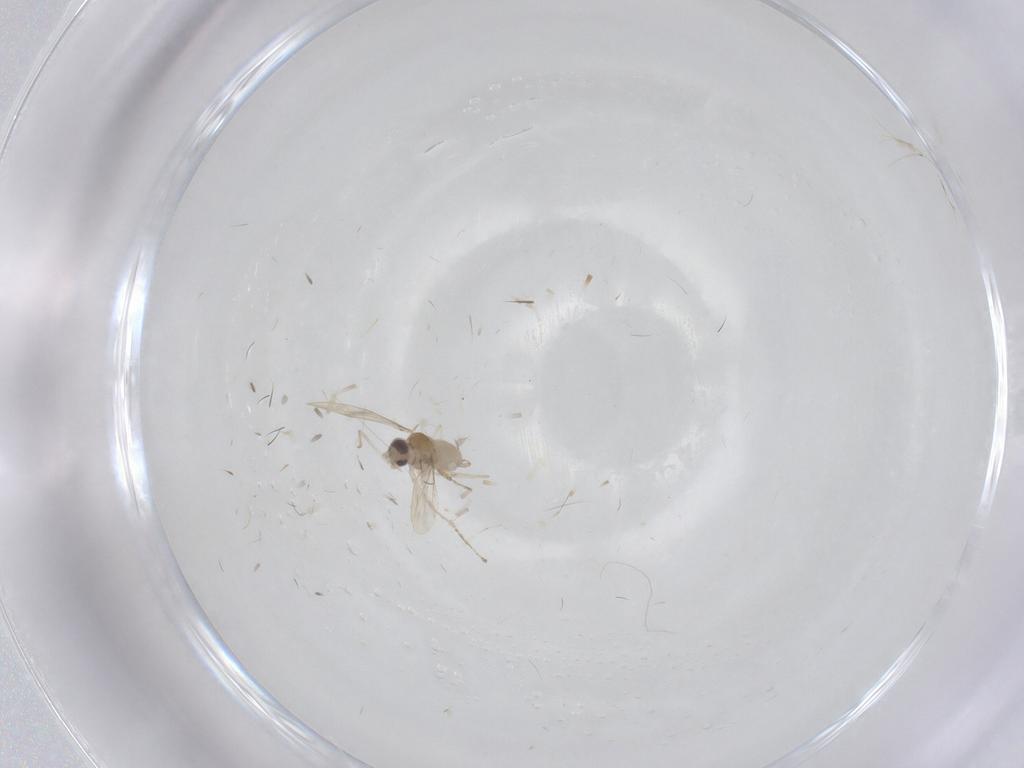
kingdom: Animalia
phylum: Arthropoda
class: Insecta
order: Diptera
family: Cecidomyiidae
